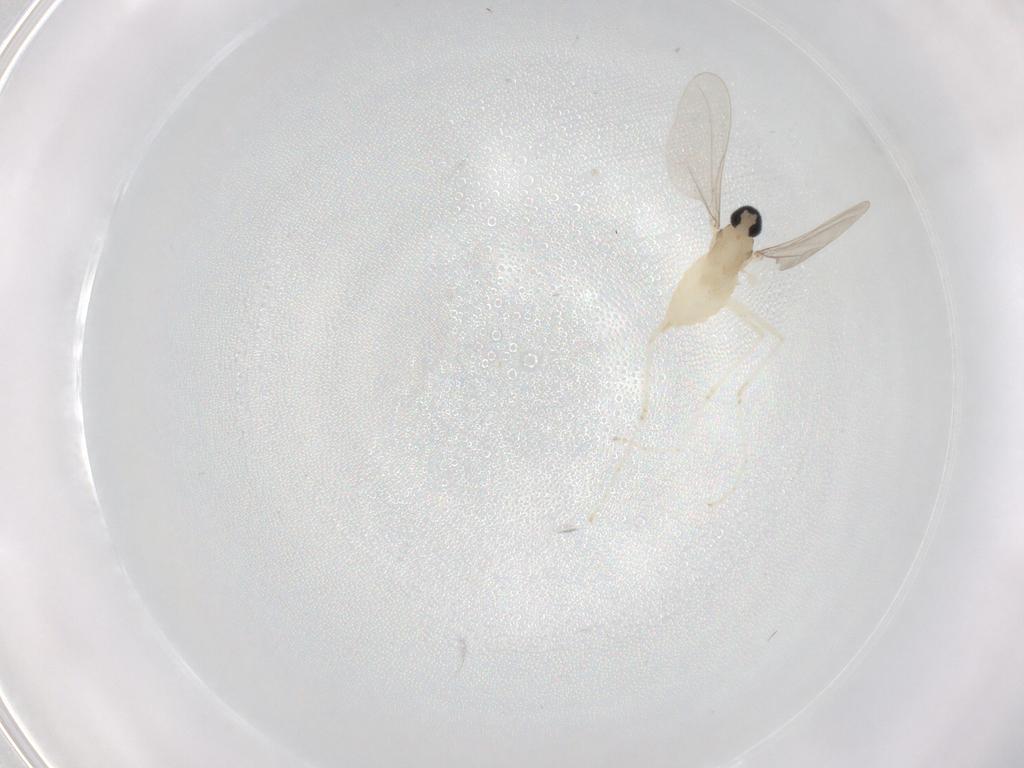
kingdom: Animalia
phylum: Arthropoda
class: Insecta
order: Diptera
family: Cecidomyiidae
